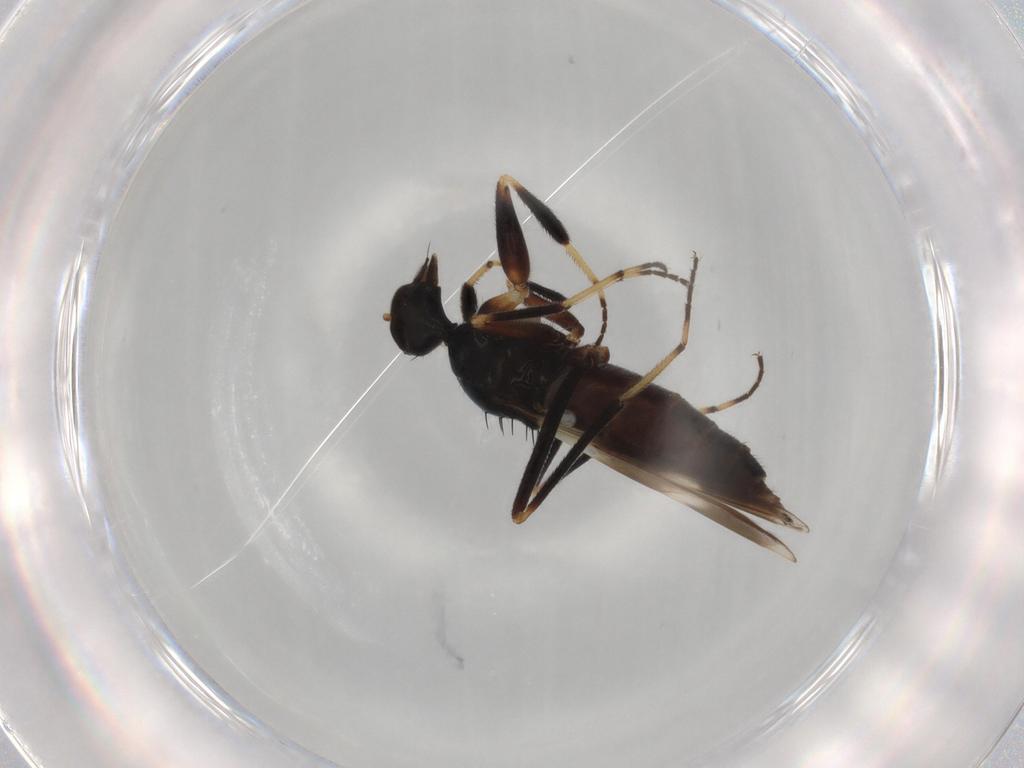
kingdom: Animalia
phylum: Arthropoda
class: Insecta
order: Diptera
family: Hybotidae
